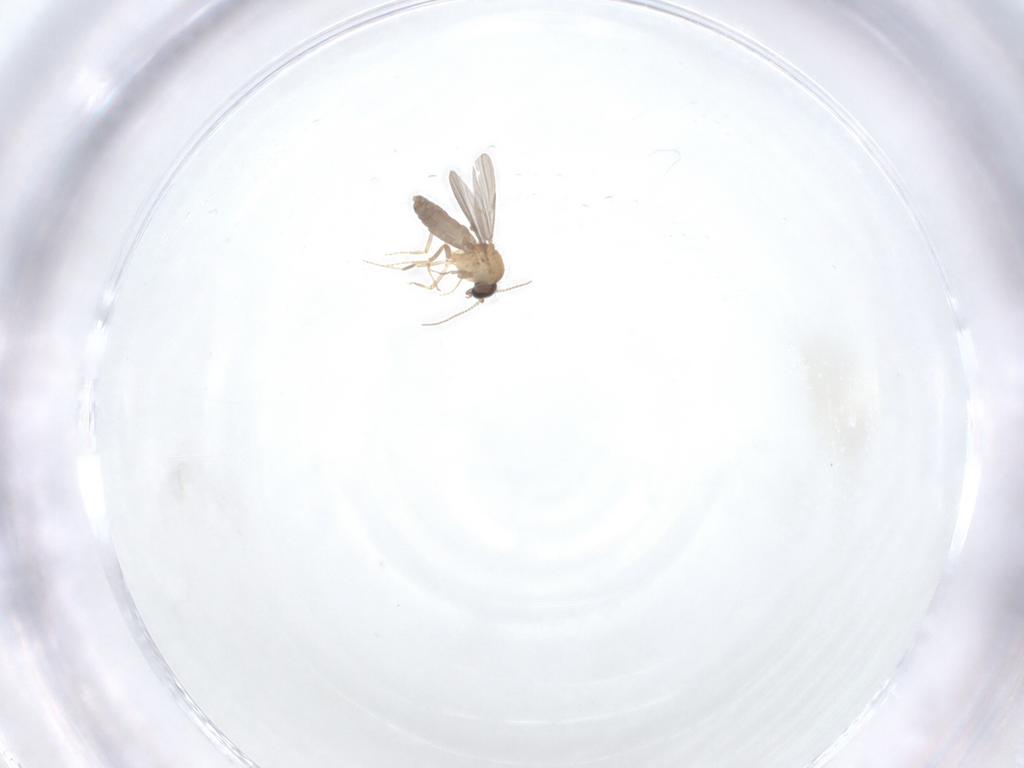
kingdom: Animalia
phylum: Arthropoda
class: Insecta
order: Diptera
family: Ceratopogonidae
